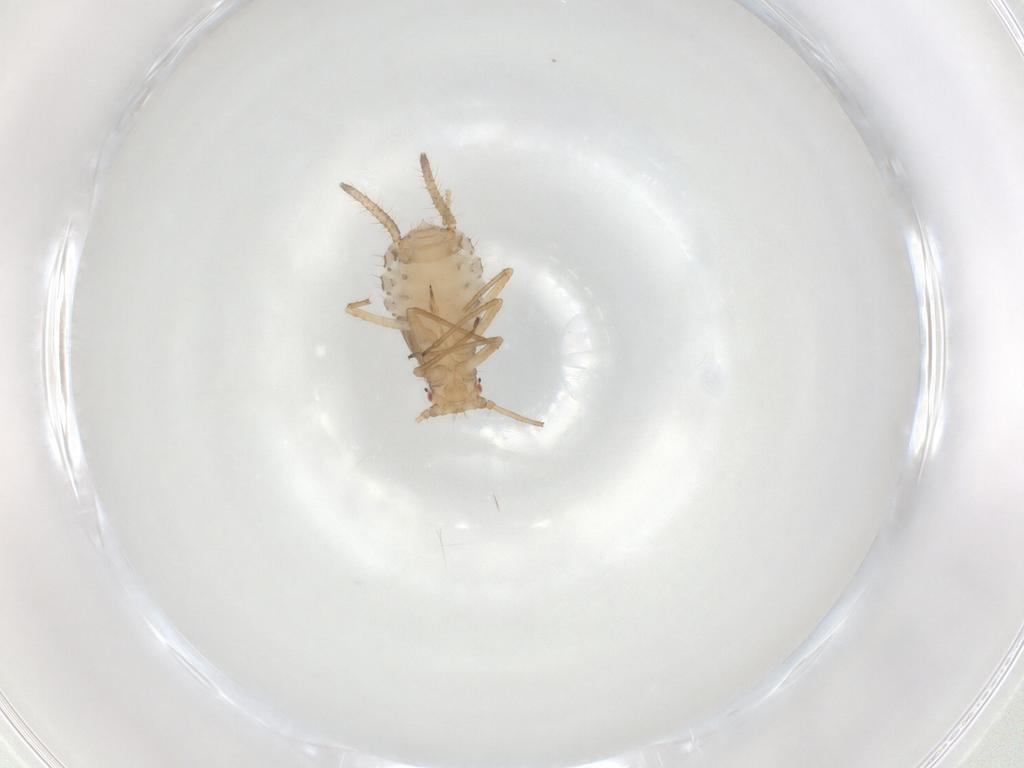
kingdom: Animalia
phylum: Arthropoda
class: Insecta
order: Hemiptera
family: Aphididae
